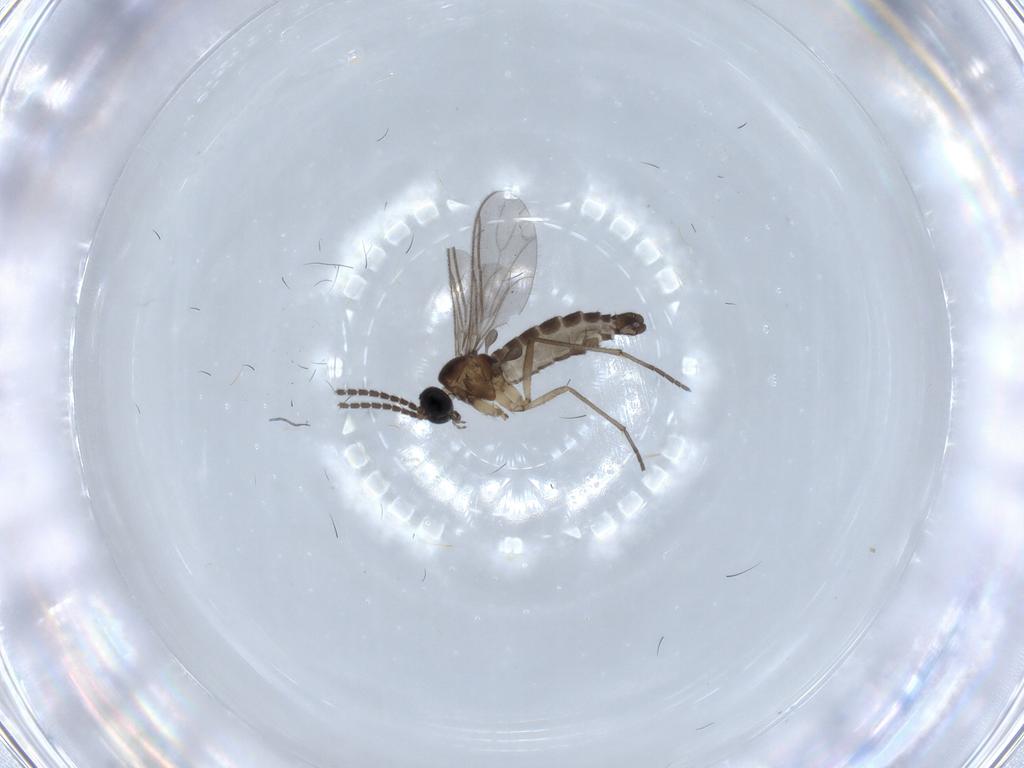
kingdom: Animalia
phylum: Arthropoda
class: Insecta
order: Diptera
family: Sciaridae
